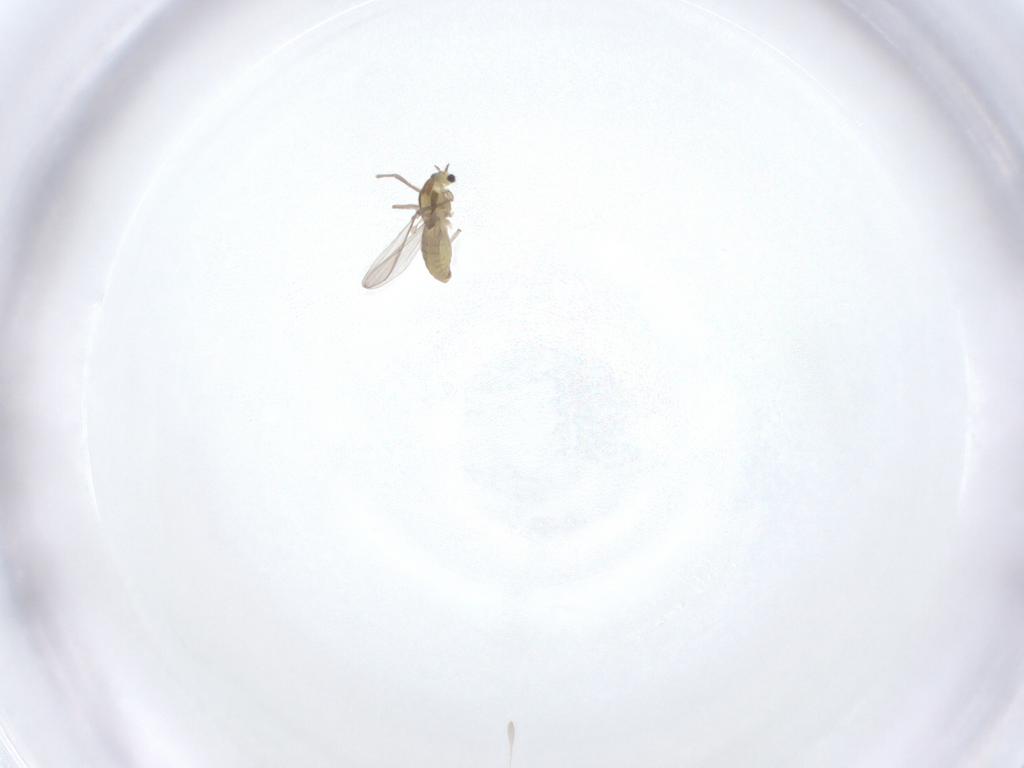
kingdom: Animalia
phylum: Arthropoda
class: Insecta
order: Diptera
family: Chironomidae
